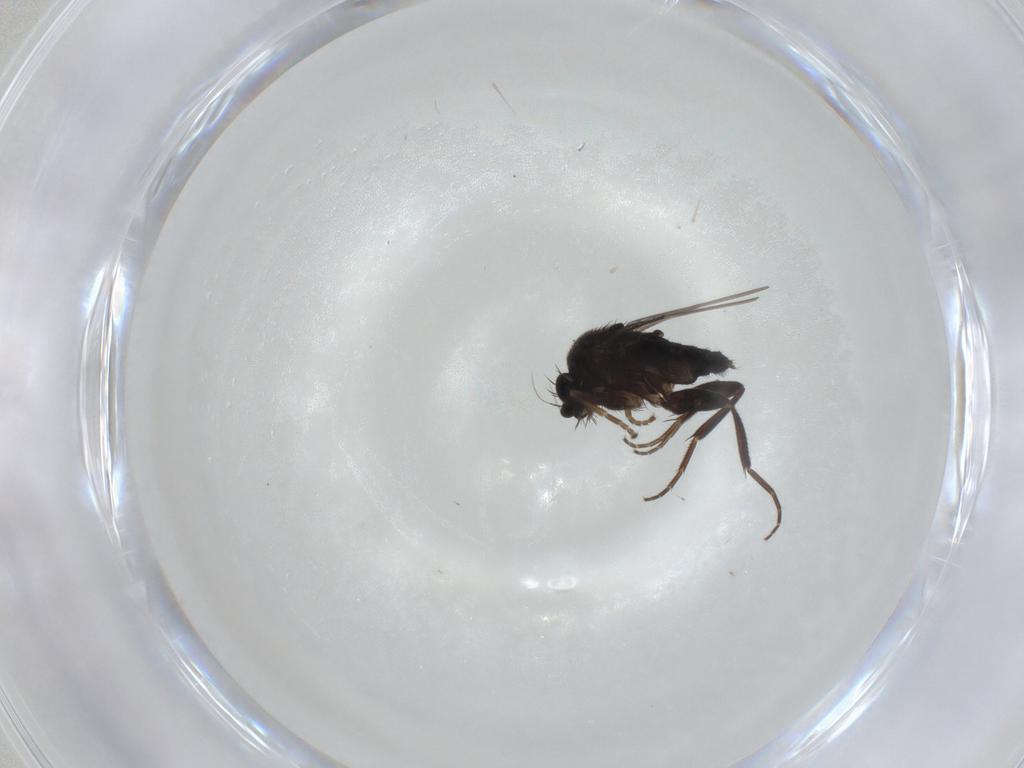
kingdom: Animalia
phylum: Arthropoda
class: Insecta
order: Diptera
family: Phoridae
